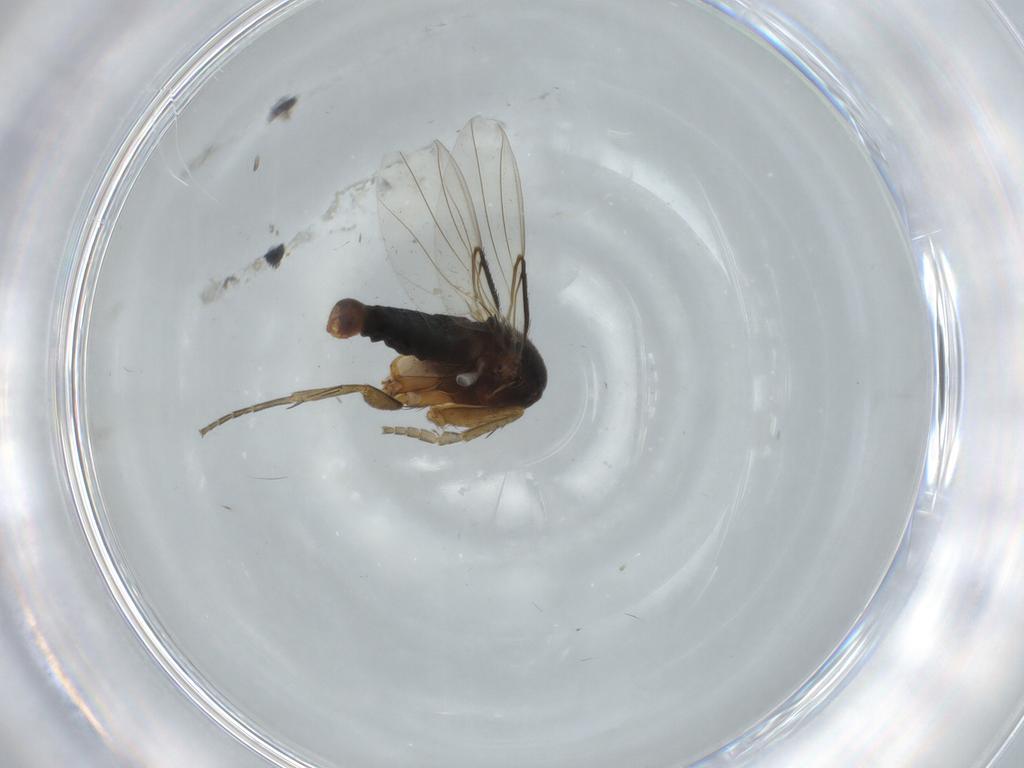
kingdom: Animalia
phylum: Arthropoda
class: Insecta
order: Diptera
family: Phoridae
